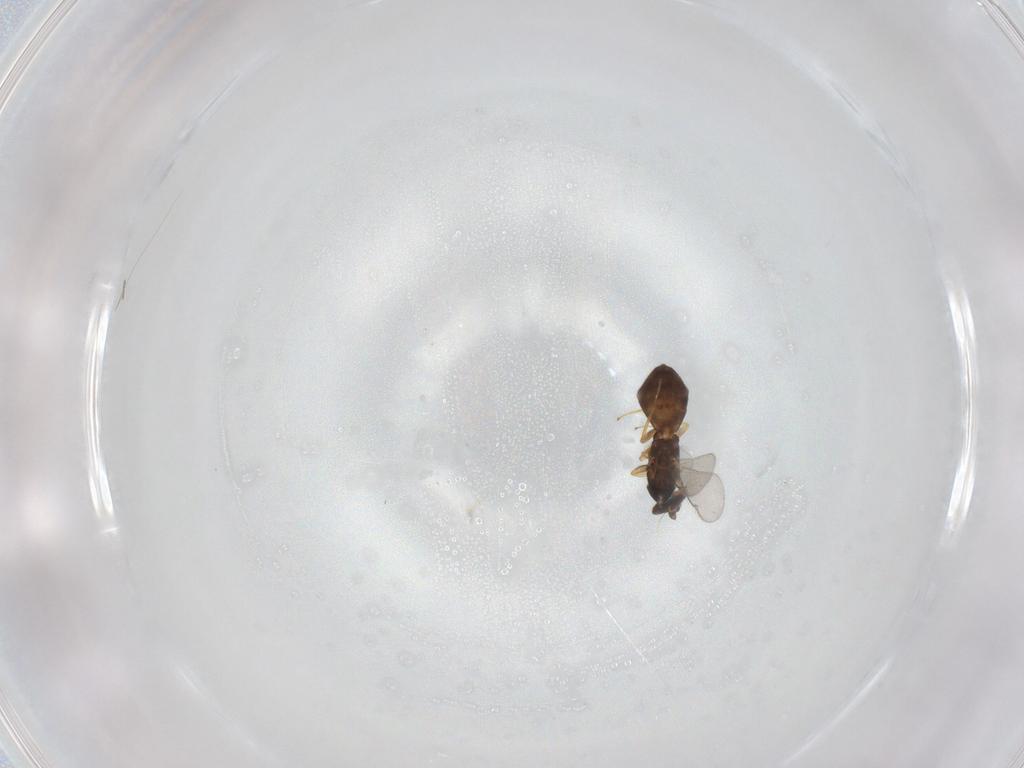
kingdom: Animalia
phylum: Arthropoda
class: Insecta
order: Hymenoptera
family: Eulophidae
